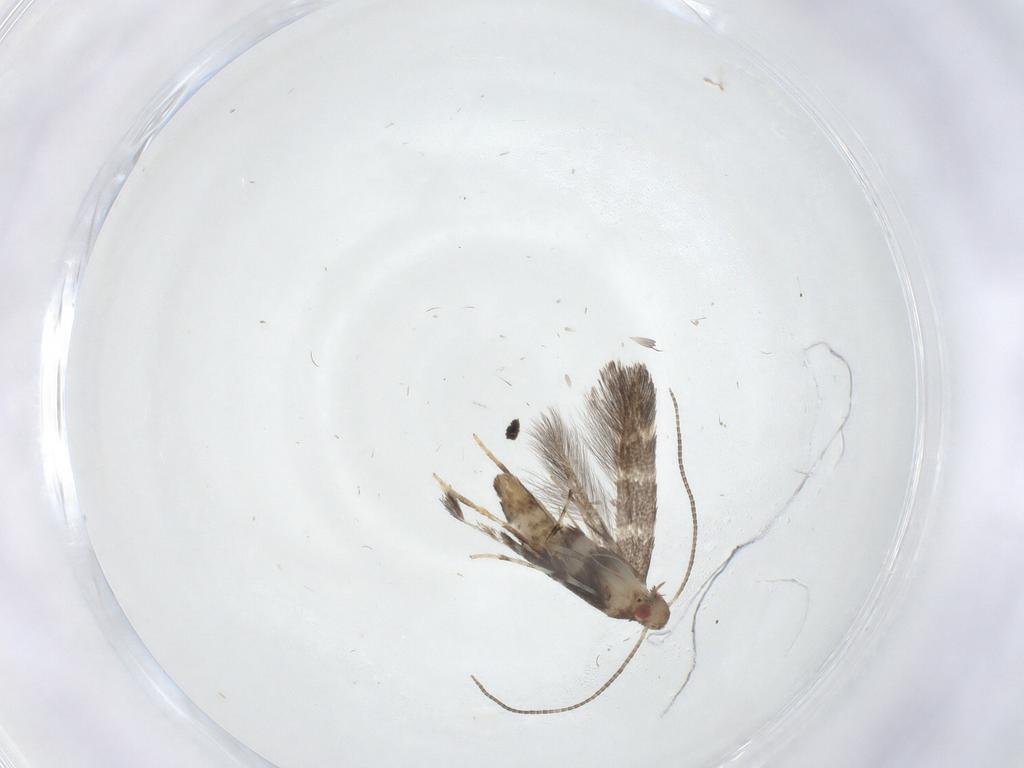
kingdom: Animalia
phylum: Arthropoda
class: Insecta
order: Lepidoptera
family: Gracillariidae
